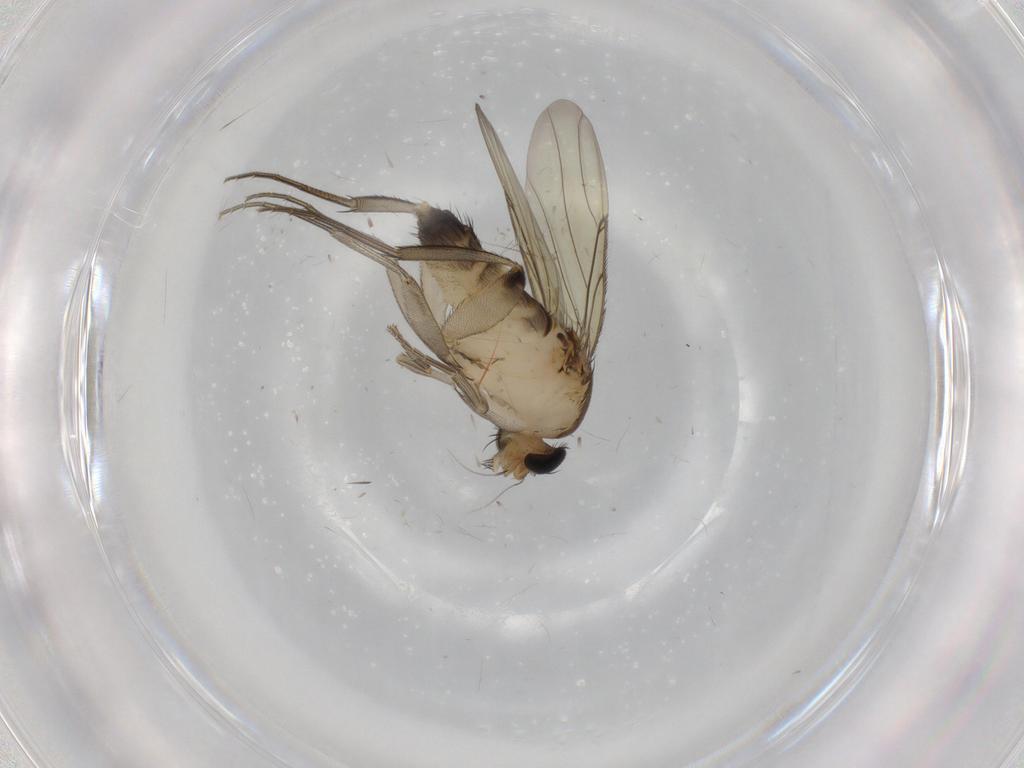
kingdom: Animalia
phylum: Arthropoda
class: Insecta
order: Diptera
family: Phoridae
